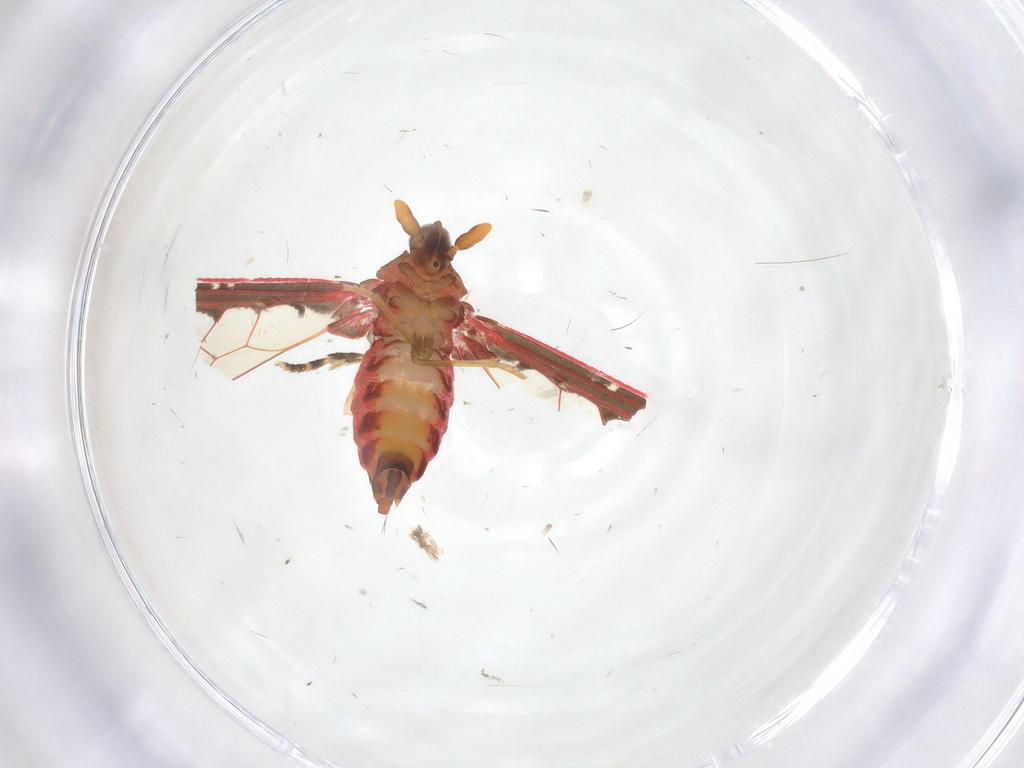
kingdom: Animalia
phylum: Arthropoda
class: Insecta
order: Hemiptera
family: Derbidae
